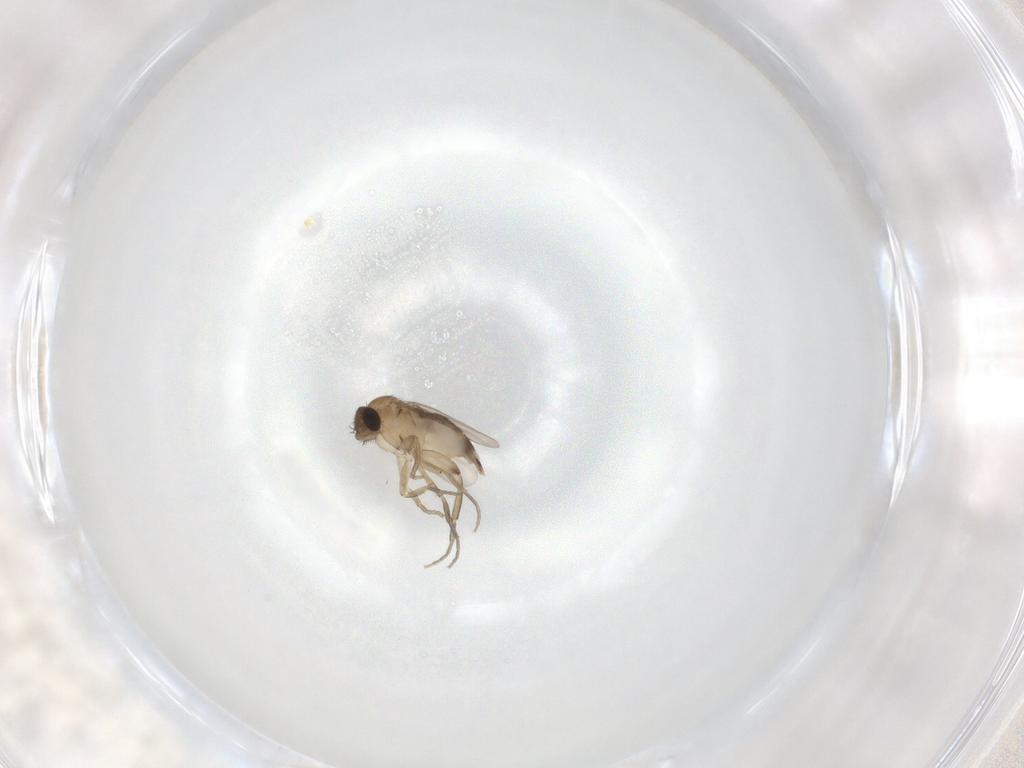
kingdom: Animalia
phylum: Arthropoda
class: Insecta
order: Diptera
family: Phoridae
